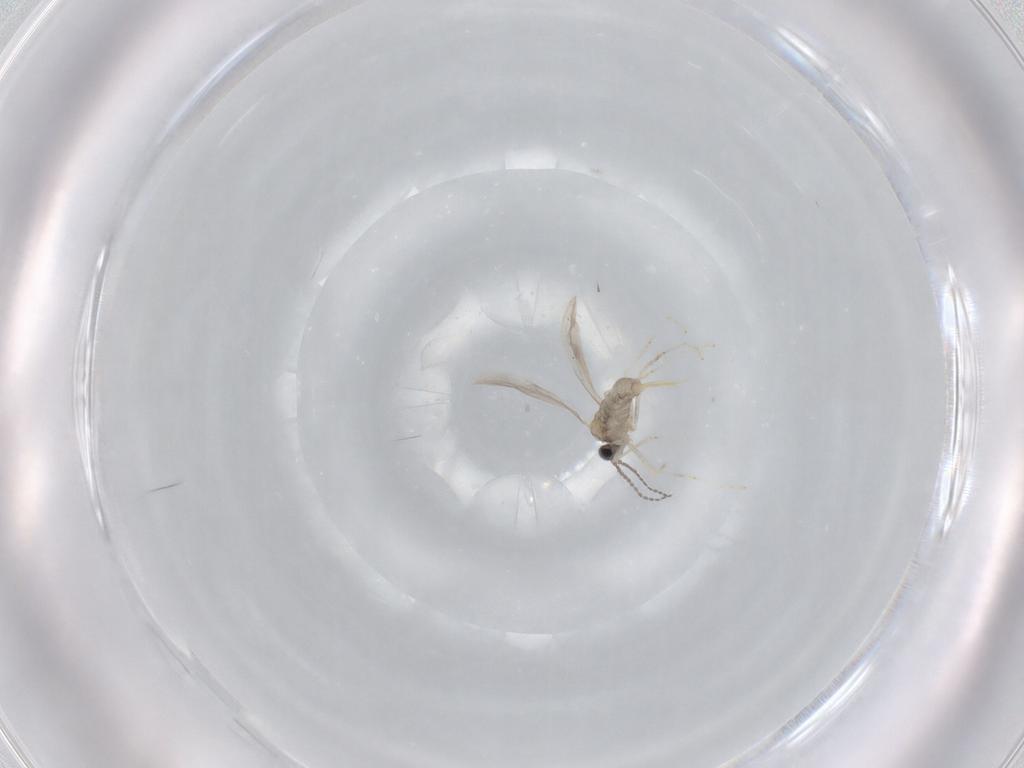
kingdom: Animalia
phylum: Arthropoda
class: Insecta
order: Diptera
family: Cecidomyiidae
